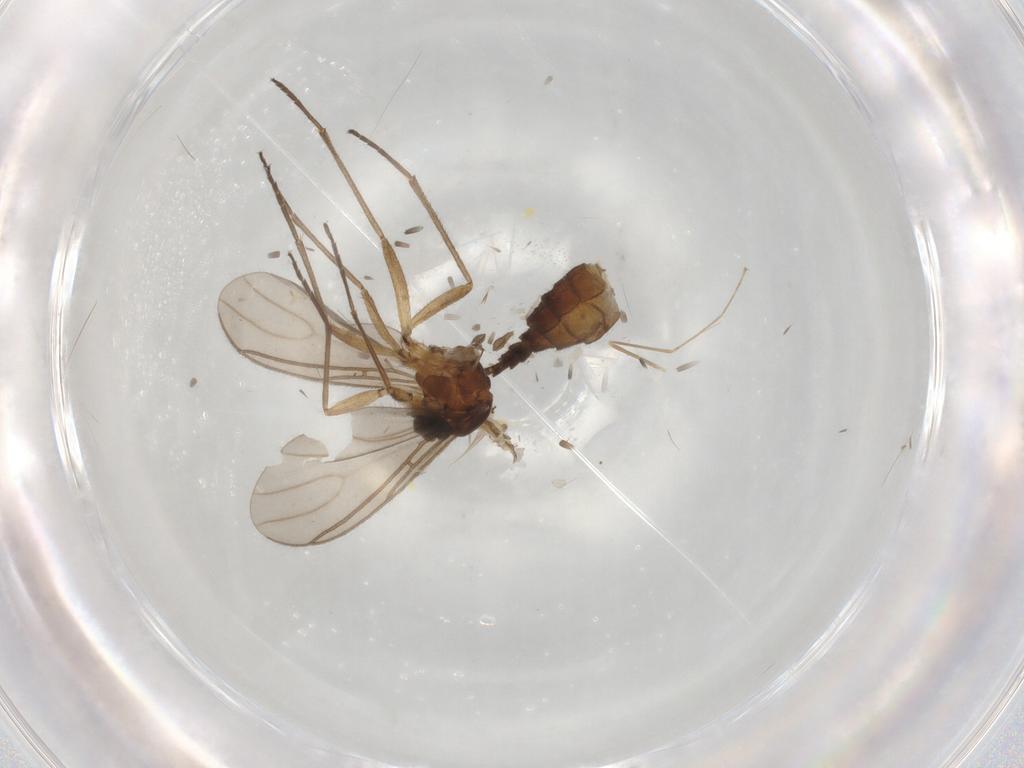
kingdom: Animalia
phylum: Arthropoda
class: Insecta
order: Diptera
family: Sciaridae
